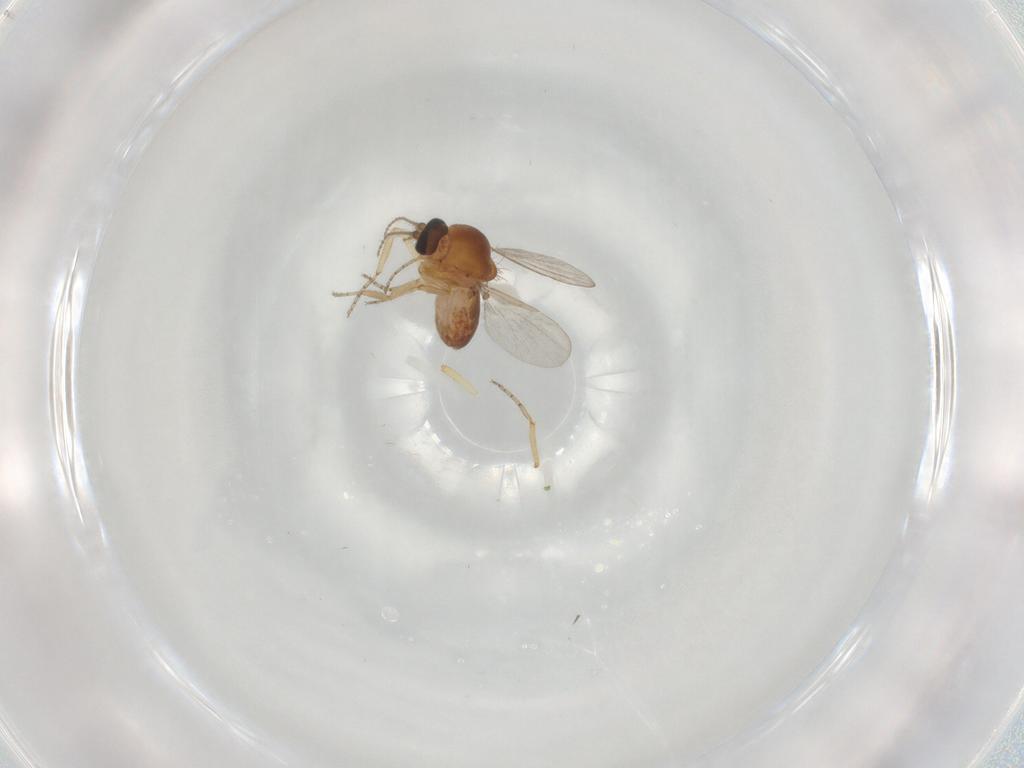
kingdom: Animalia
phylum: Arthropoda
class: Insecta
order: Diptera
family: Ceratopogonidae
